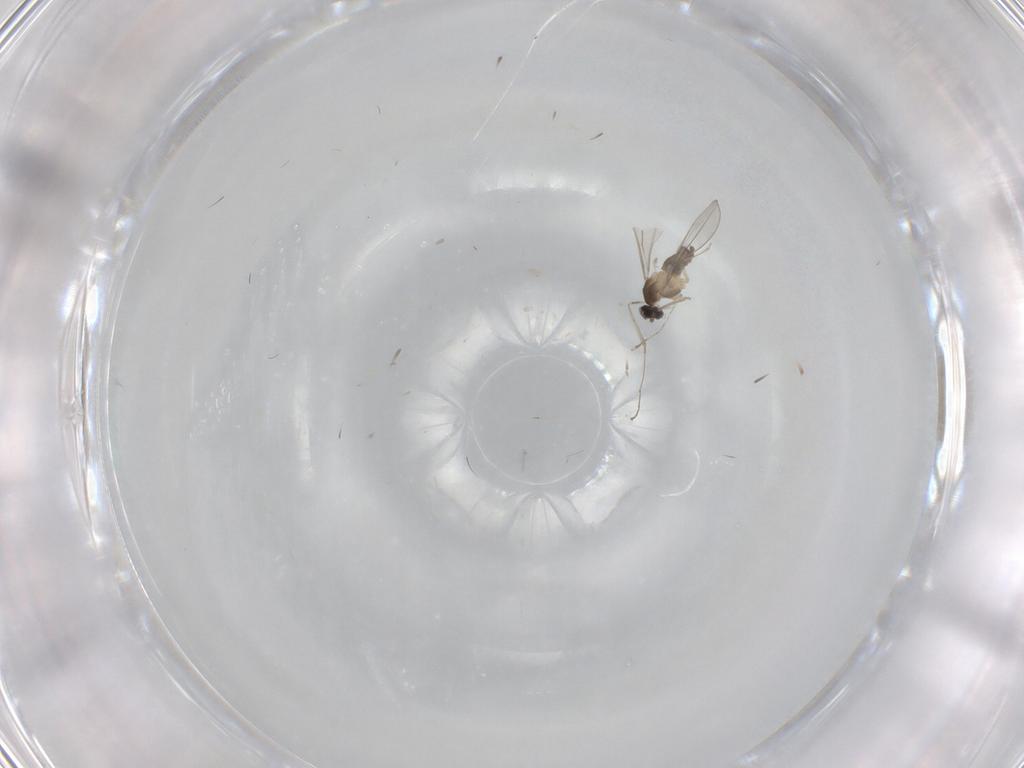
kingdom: Animalia
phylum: Arthropoda
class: Insecta
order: Diptera
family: Cecidomyiidae
